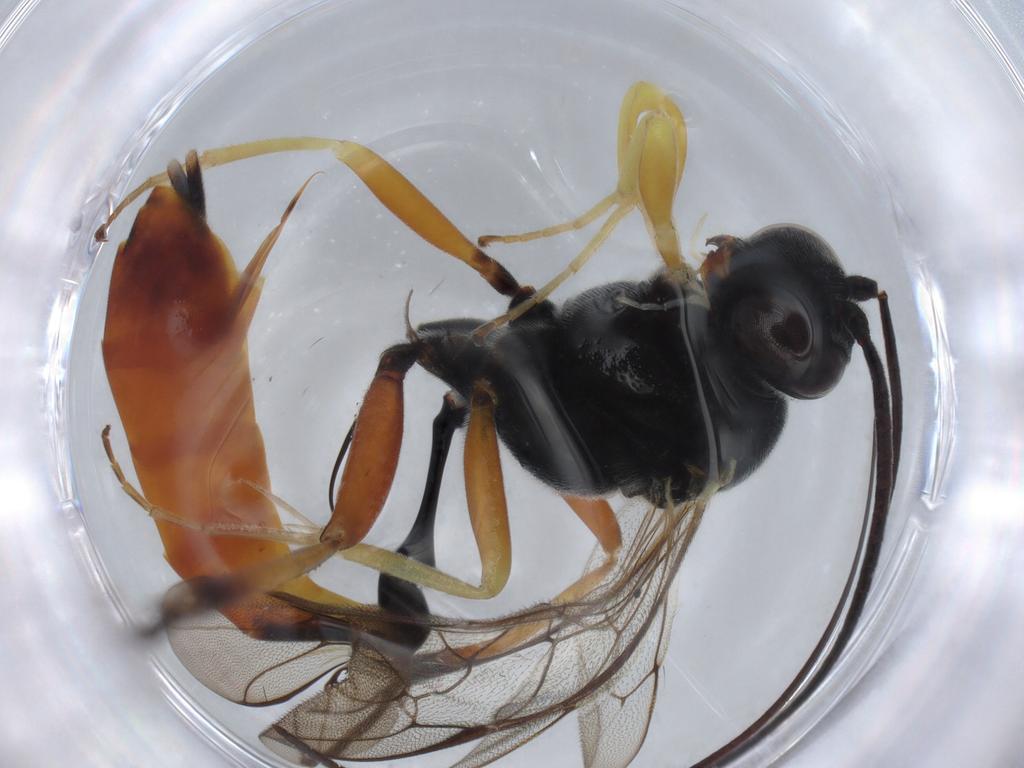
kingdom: Animalia
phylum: Arthropoda
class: Insecta
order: Hymenoptera
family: Ichneumonidae
